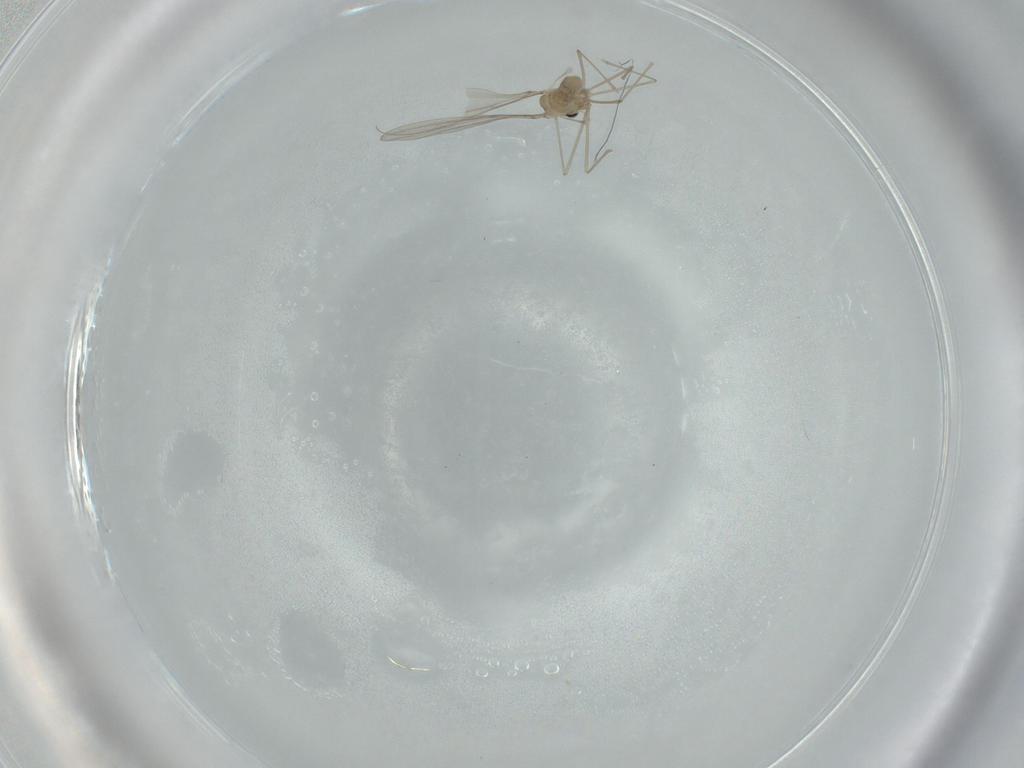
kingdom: Animalia
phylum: Arthropoda
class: Insecta
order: Diptera
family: Cecidomyiidae
